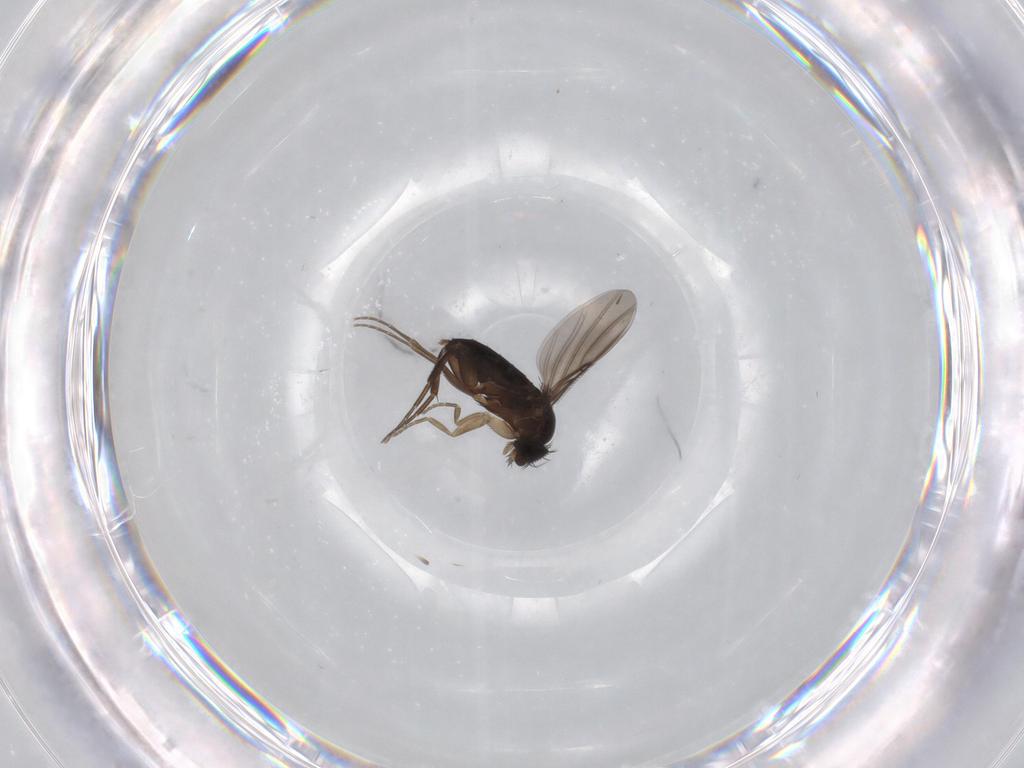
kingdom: Animalia
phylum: Arthropoda
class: Insecta
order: Diptera
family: Phoridae
